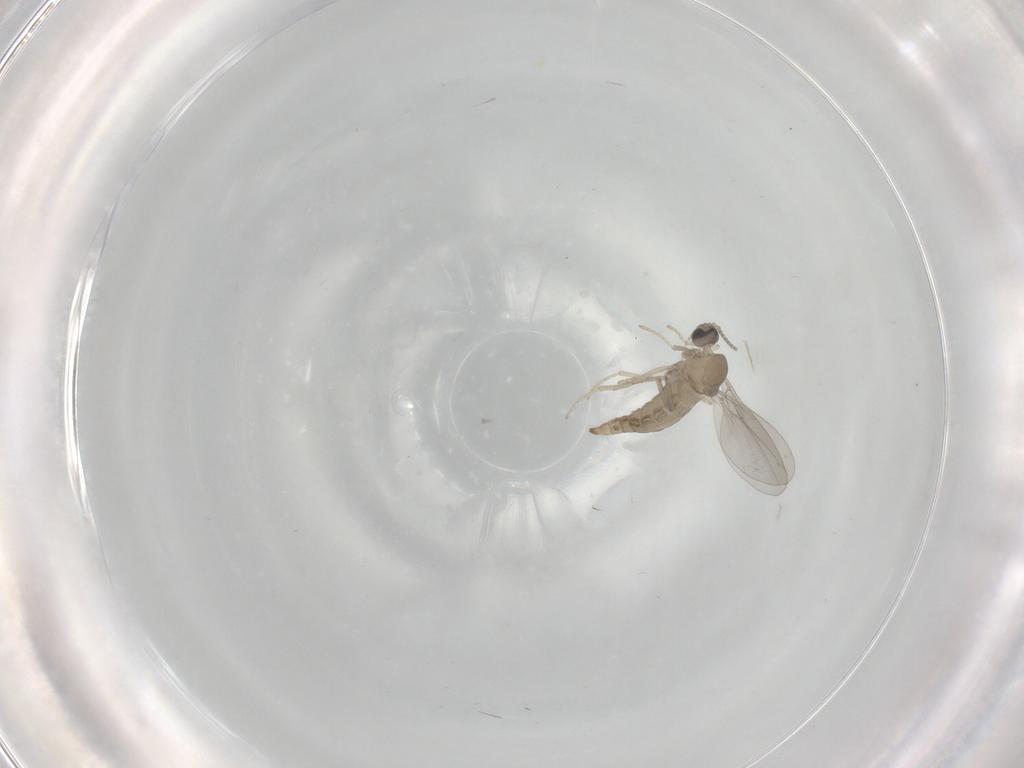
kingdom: Animalia
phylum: Arthropoda
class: Insecta
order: Diptera
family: Cecidomyiidae
